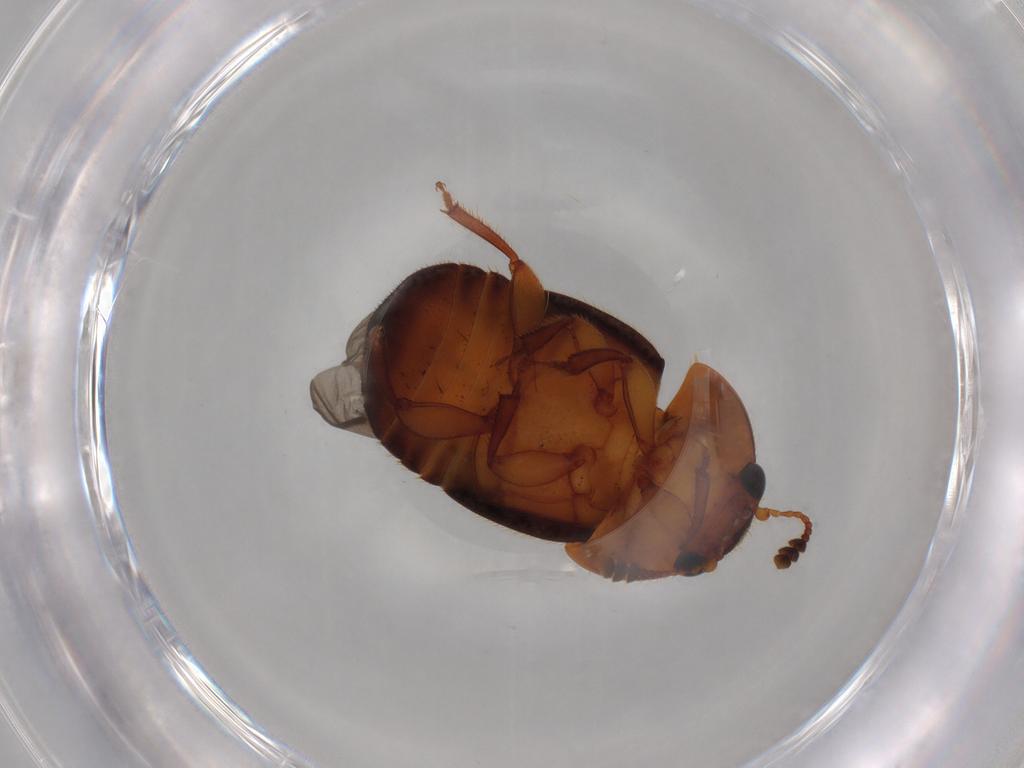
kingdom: Animalia
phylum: Arthropoda
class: Insecta
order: Coleoptera
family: Nitidulidae
